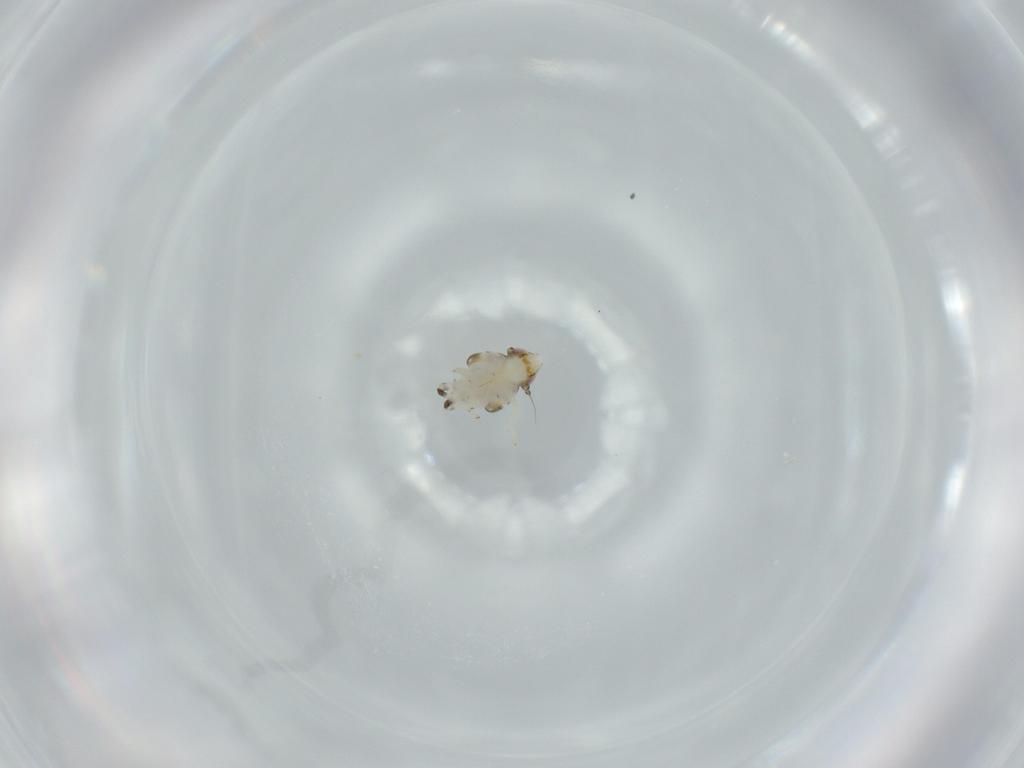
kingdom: Animalia
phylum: Arthropoda
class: Insecta
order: Hemiptera
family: Nogodinidae
